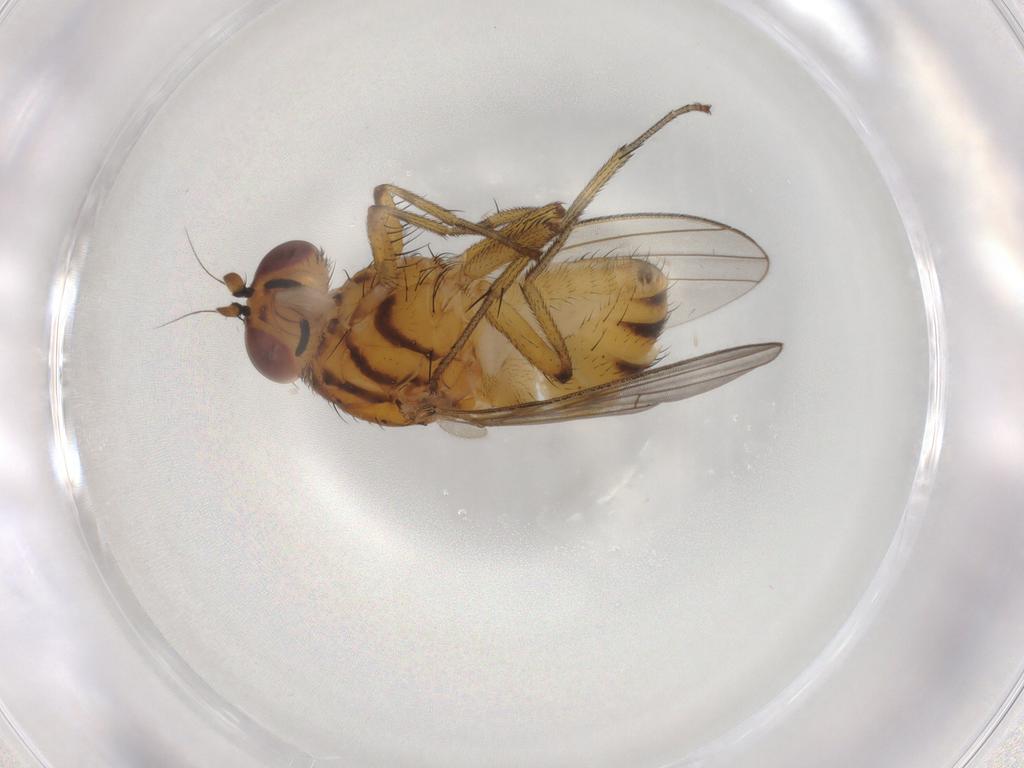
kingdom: Animalia
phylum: Arthropoda
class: Insecta
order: Diptera
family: Lauxaniidae
